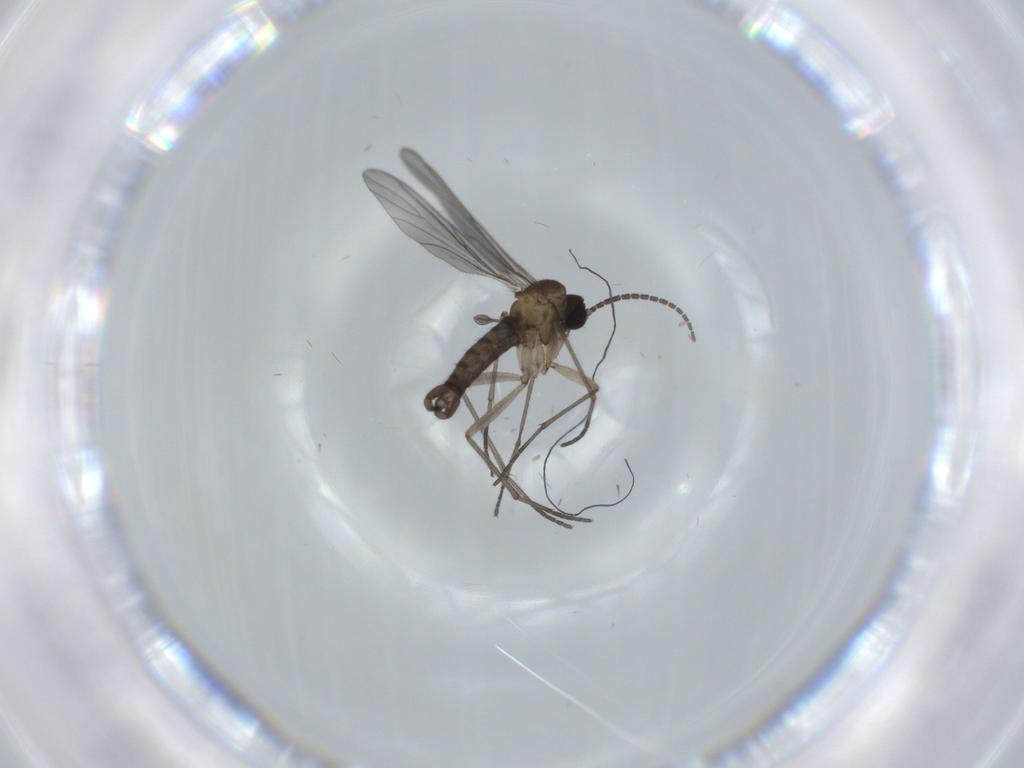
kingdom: Animalia
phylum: Arthropoda
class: Insecta
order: Diptera
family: Sciaridae
